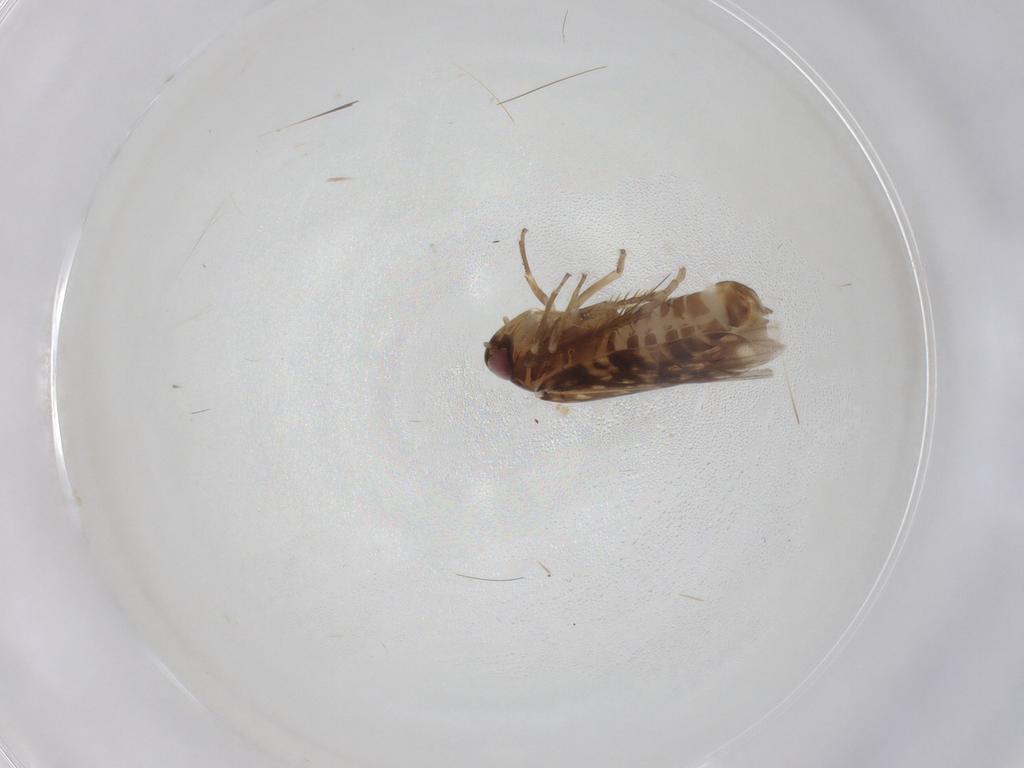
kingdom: Animalia
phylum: Arthropoda
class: Insecta
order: Hemiptera
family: Cicadellidae
